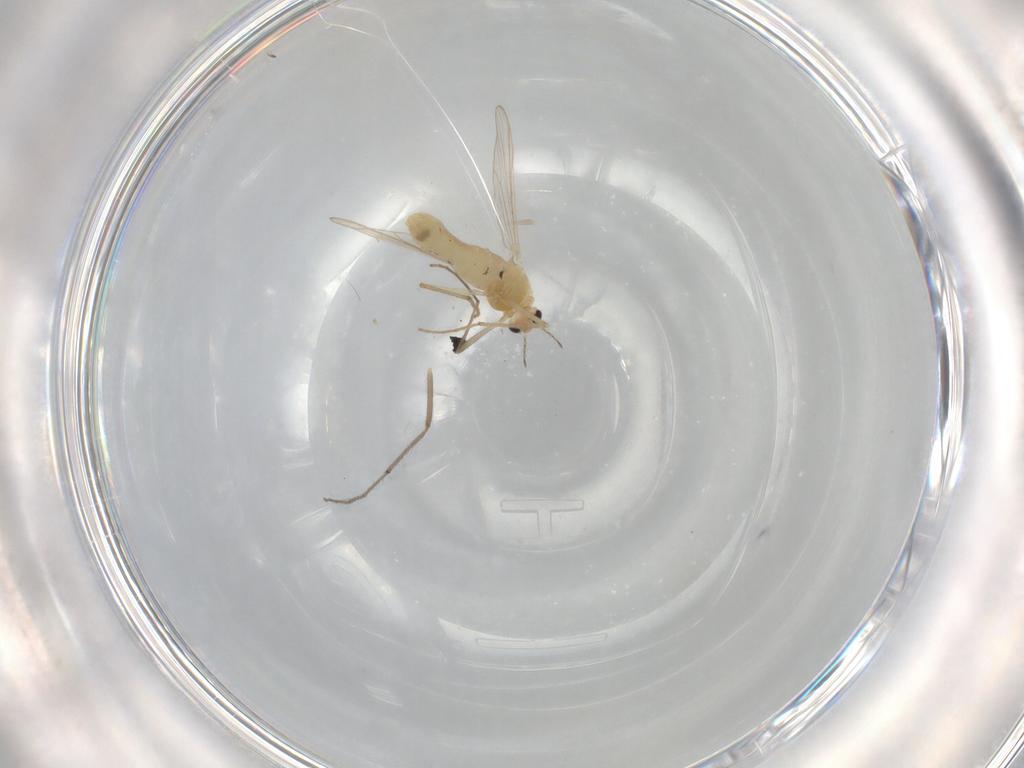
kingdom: Animalia
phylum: Arthropoda
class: Insecta
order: Diptera
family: Chironomidae
